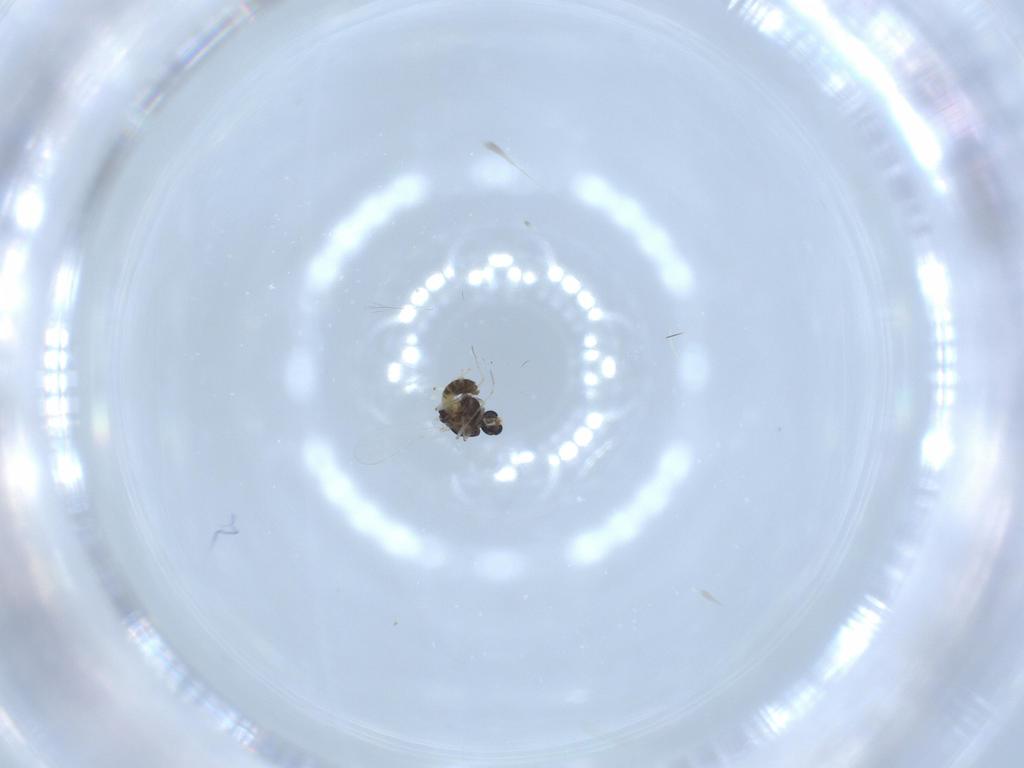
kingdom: Animalia
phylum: Arthropoda
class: Insecta
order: Diptera
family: Chironomidae
